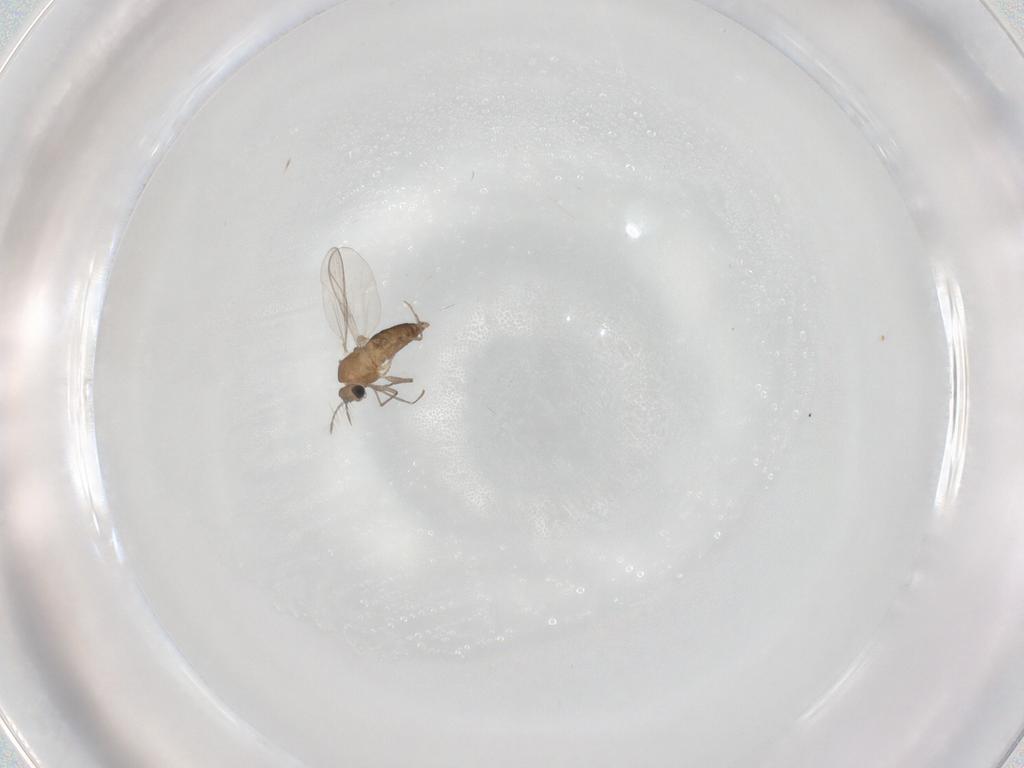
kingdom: Animalia
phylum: Arthropoda
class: Insecta
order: Diptera
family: Chironomidae
